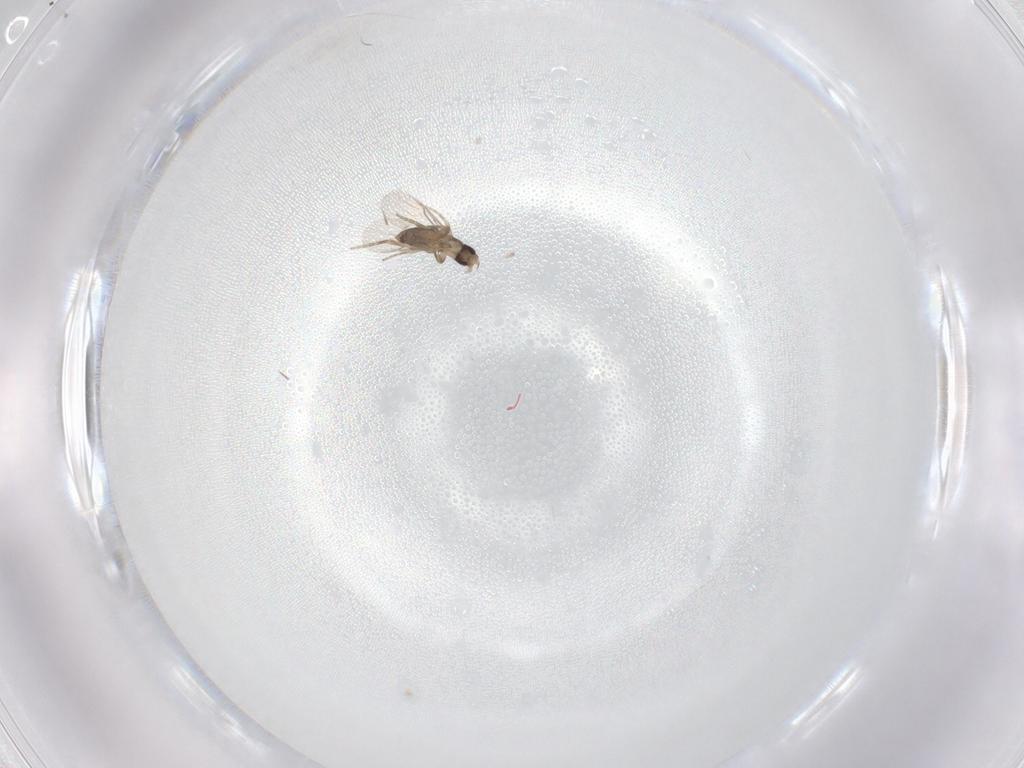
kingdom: Animalia
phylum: Arthropoda
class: Insecta
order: Diptera
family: Phoridae
